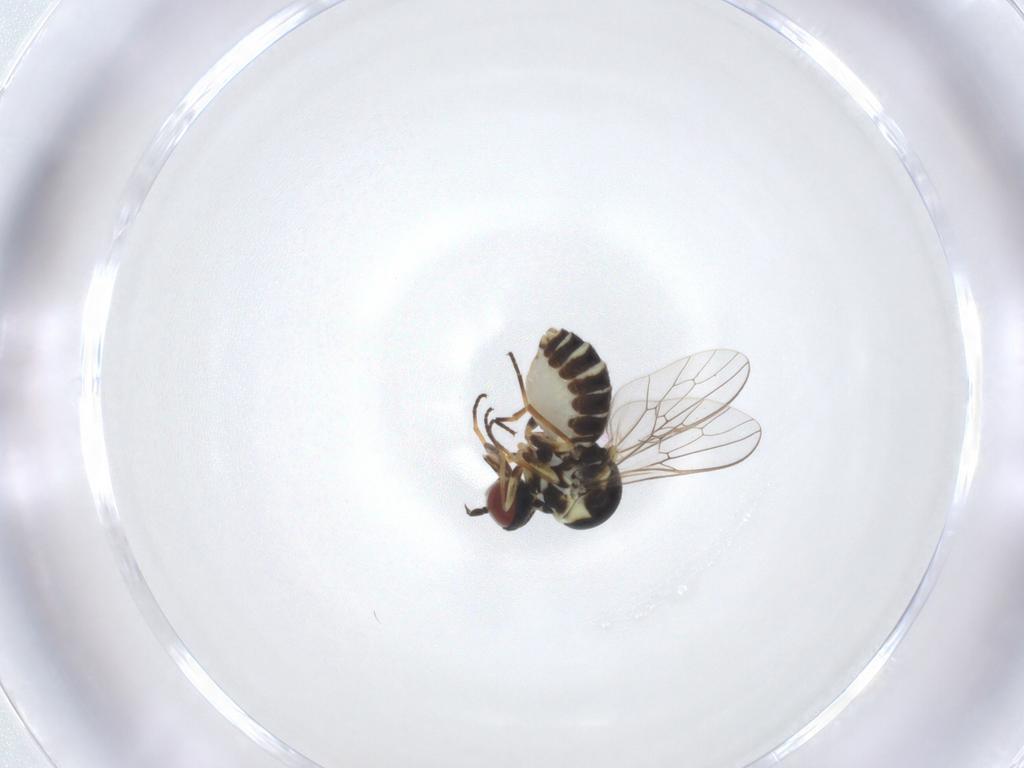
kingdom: Animalia
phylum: Arthropoda
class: Insecta
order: Diptera
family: Bombyliidae
